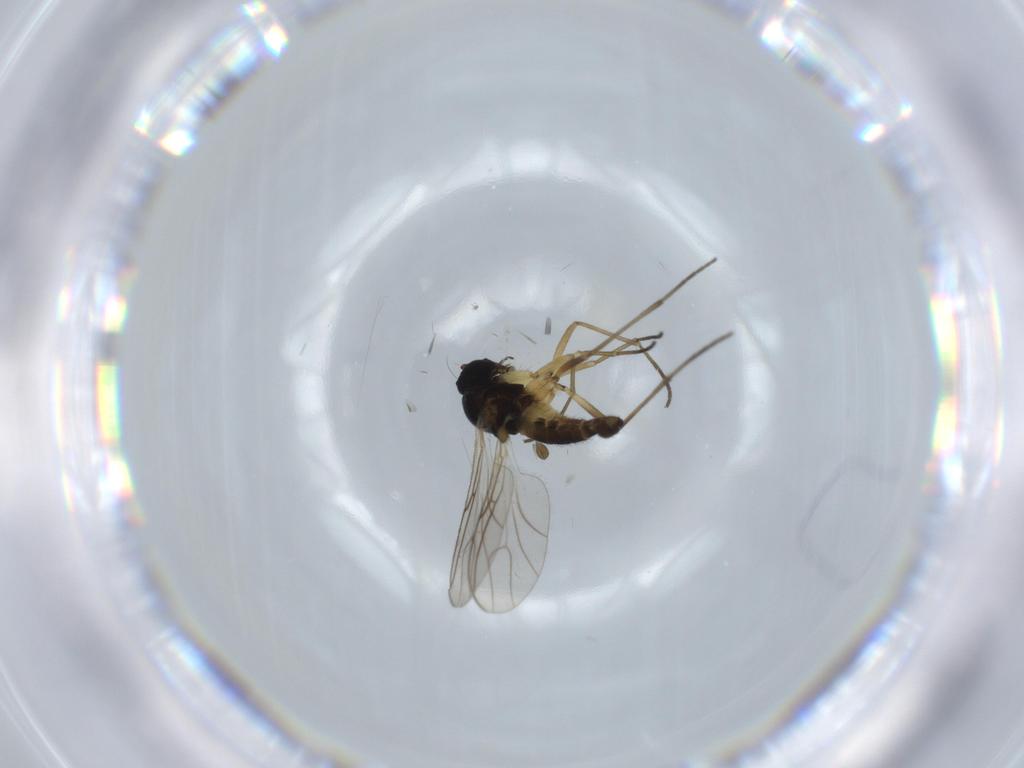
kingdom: Animalia
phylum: Arthropoda
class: Insecta
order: Diptera
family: Cecidomyiidae
